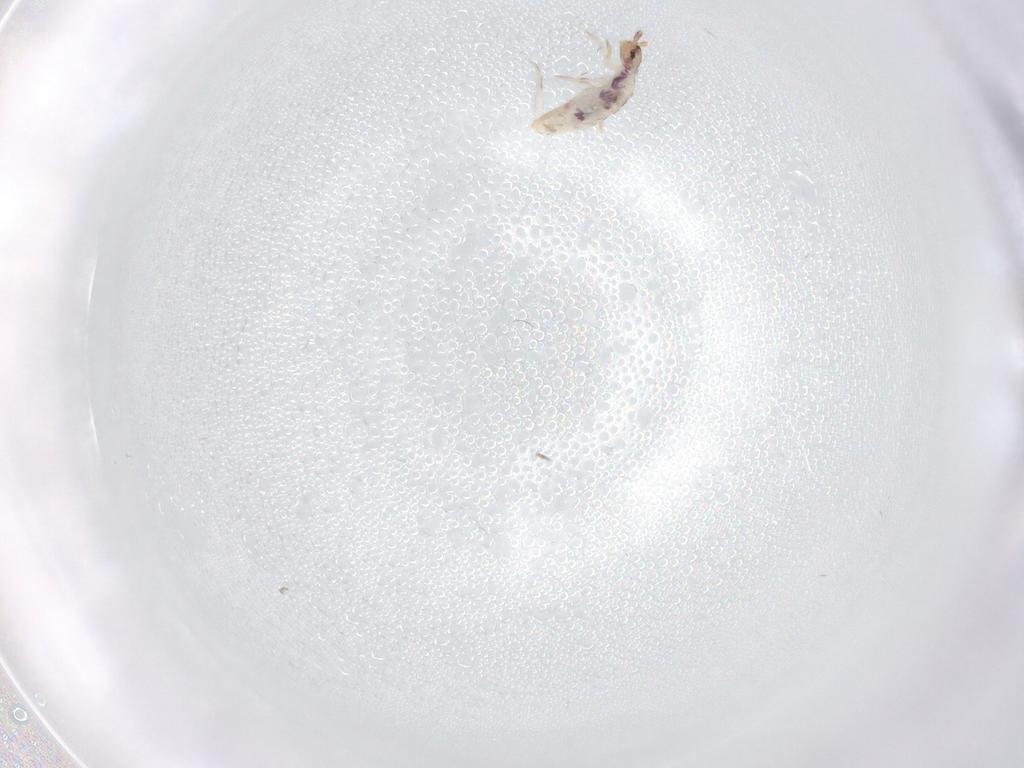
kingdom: Animalia
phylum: Arthropoda
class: Collembola
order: Entomobryomorpha
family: Entomobryidae
